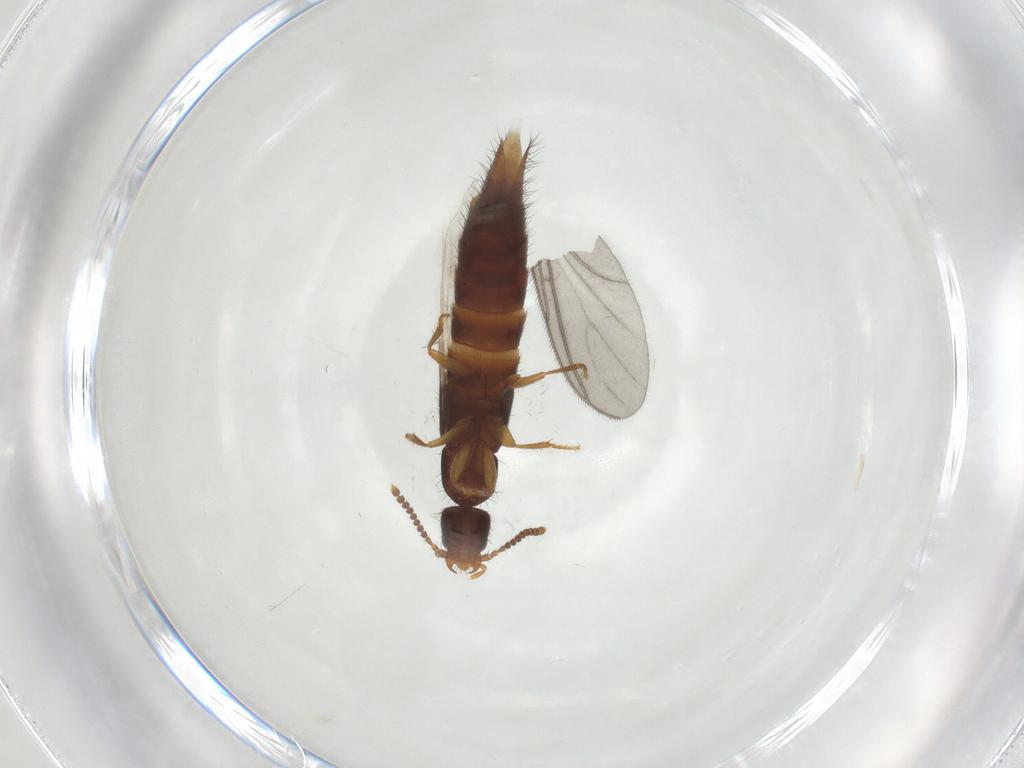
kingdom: Animalia
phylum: Arthropoda
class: Insecta
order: Coleoptera
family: Staphylinidae
